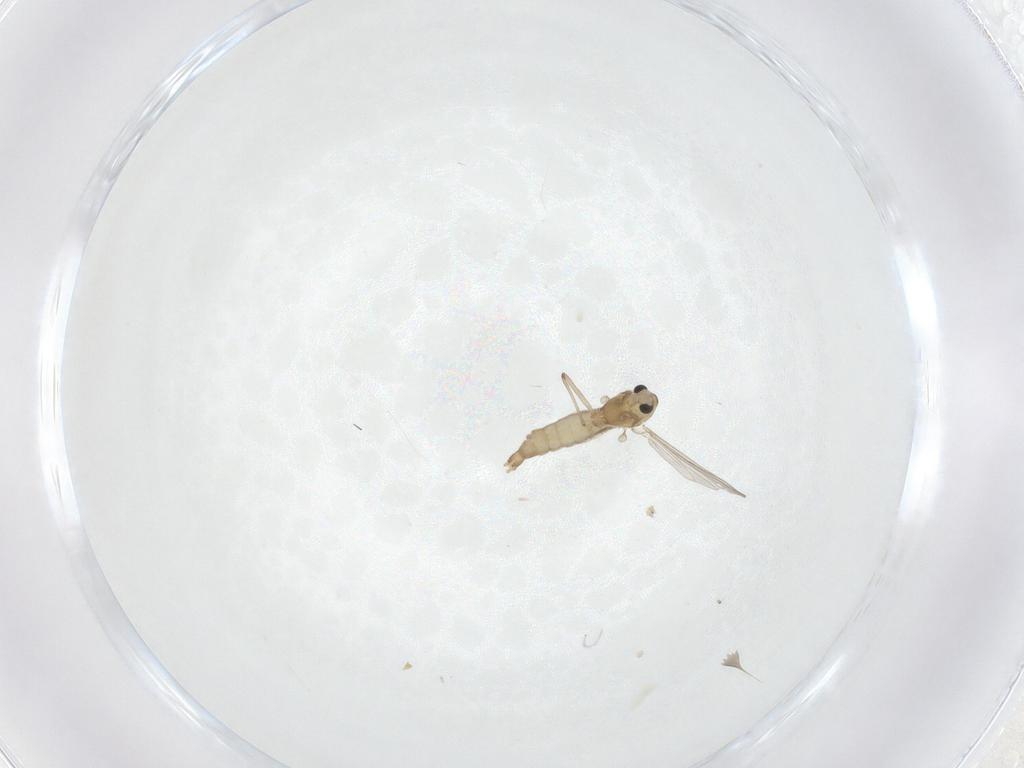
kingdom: Animalia
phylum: Arthropoda
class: Insecta
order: Diptera
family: Chironomidae
